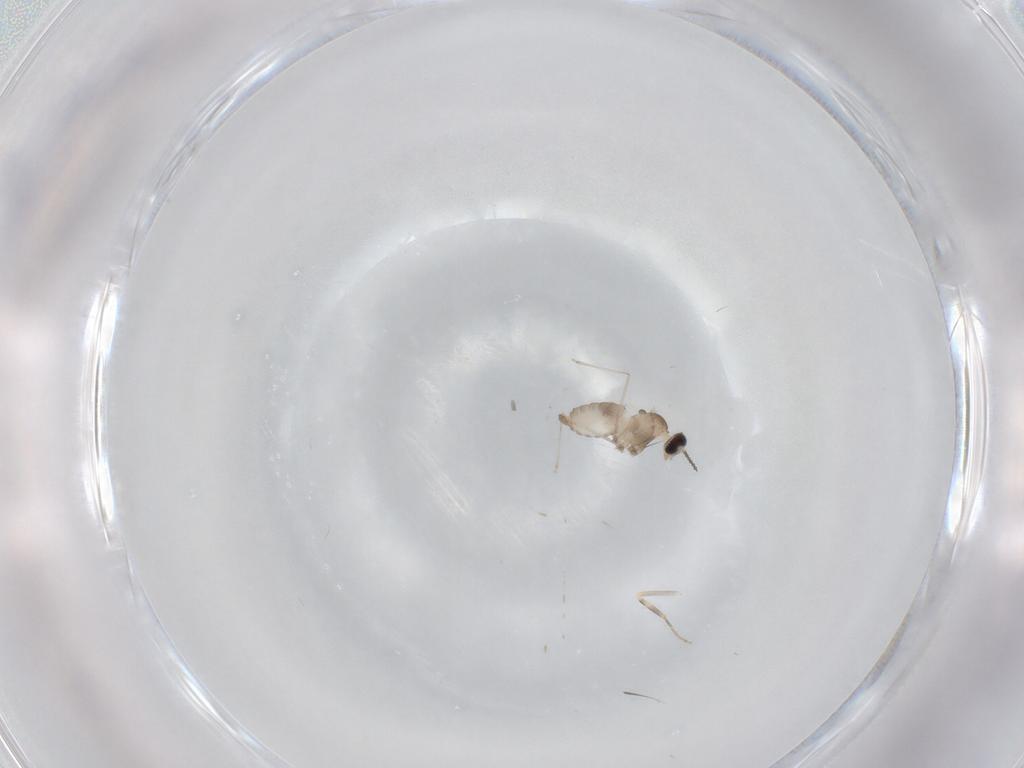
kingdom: Animalia
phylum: Arthropoda
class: Insecta
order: Diptera
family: Ceratopogonidae
